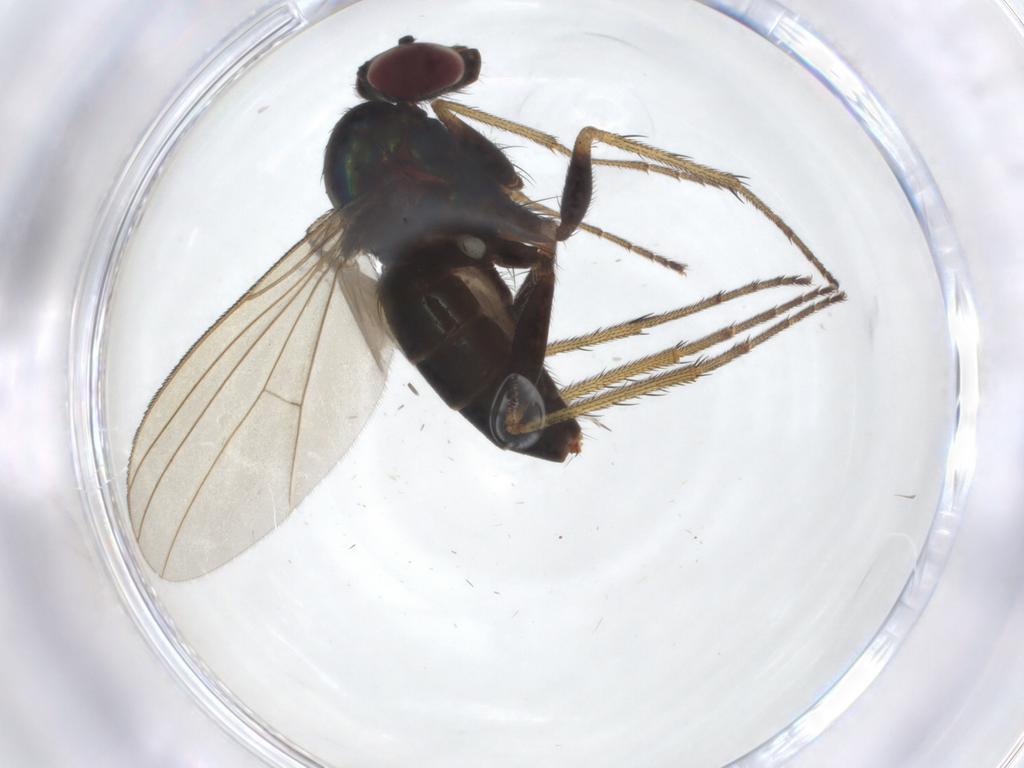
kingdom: Animalia
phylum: Arthropoda
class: Insecta
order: Diptera
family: Dolichopodidae
